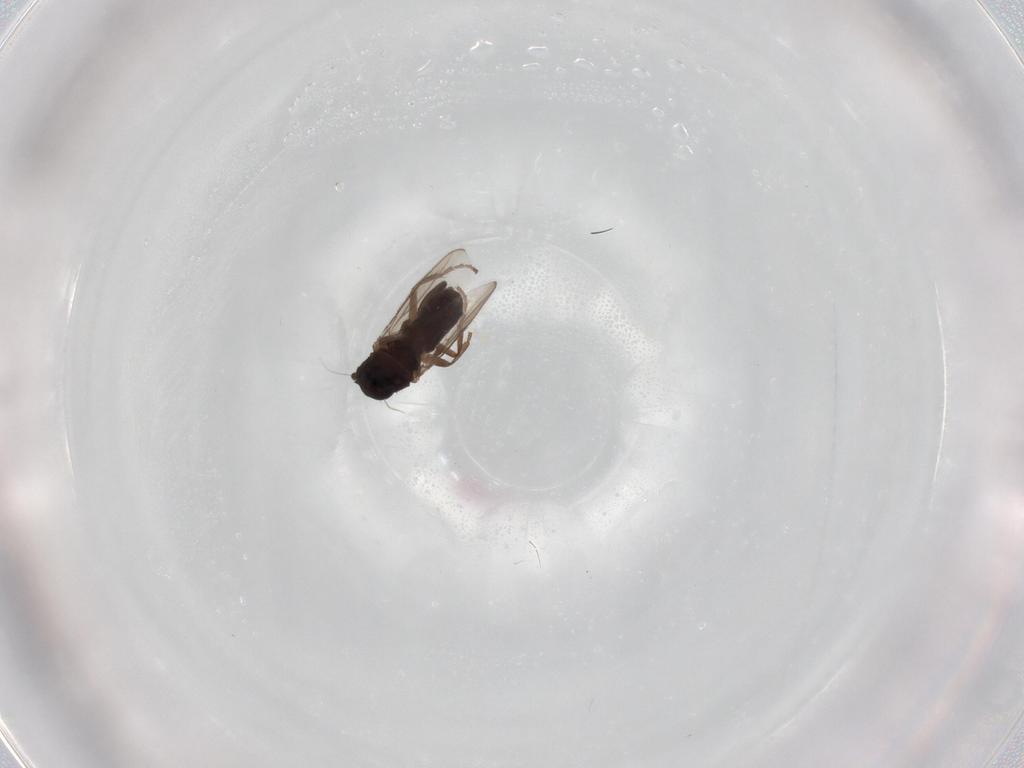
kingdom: Animalia
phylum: Arthropoda
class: Insecta
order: Diptera
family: Sphaeroceridae
